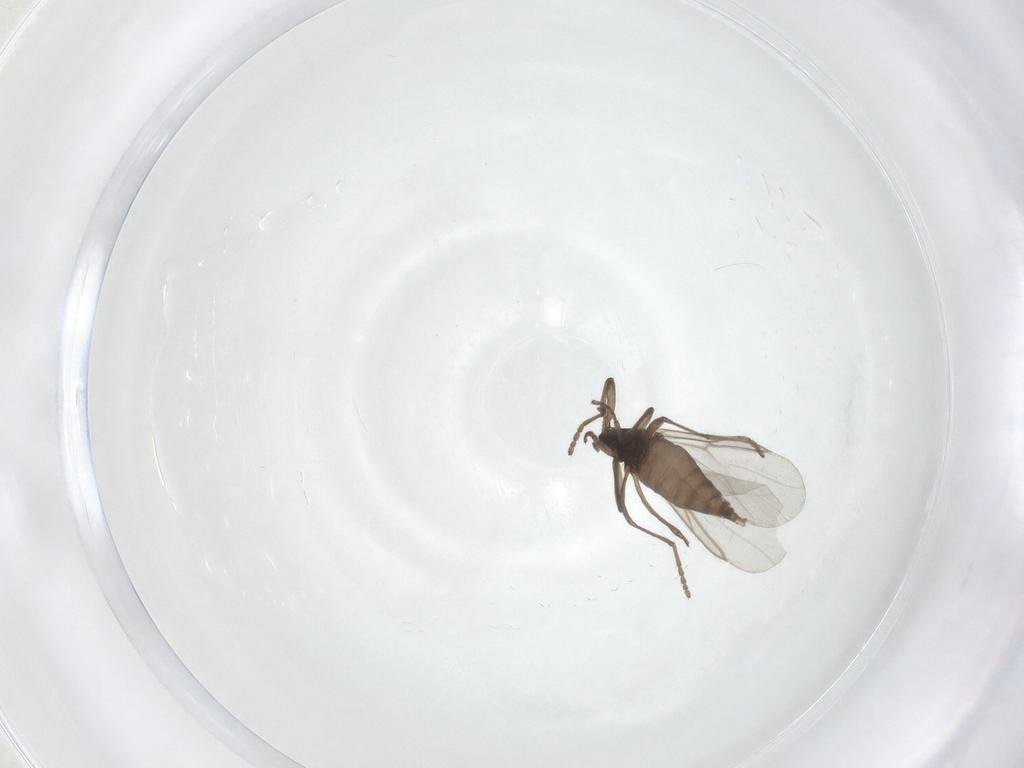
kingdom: Animalia
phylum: Arthropoda
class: Insecta
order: Diptera
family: Cecidomyiidae
